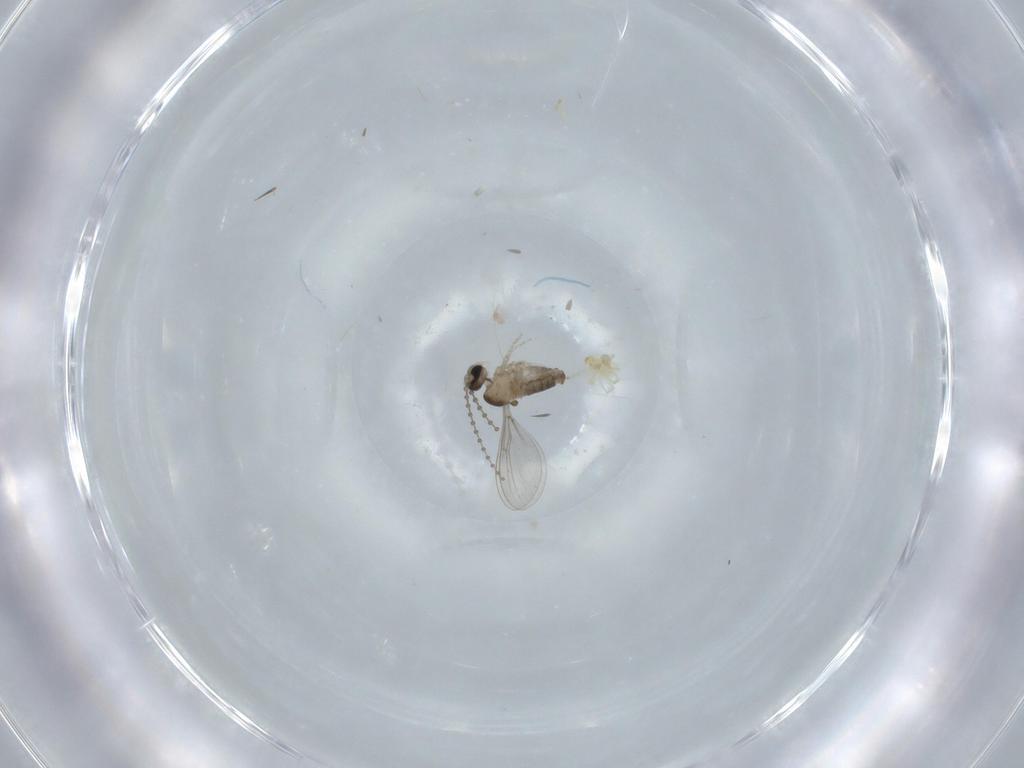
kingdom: Animalia
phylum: Arthropoda
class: Insecta
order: Diptera
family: Cecidomyiidae
